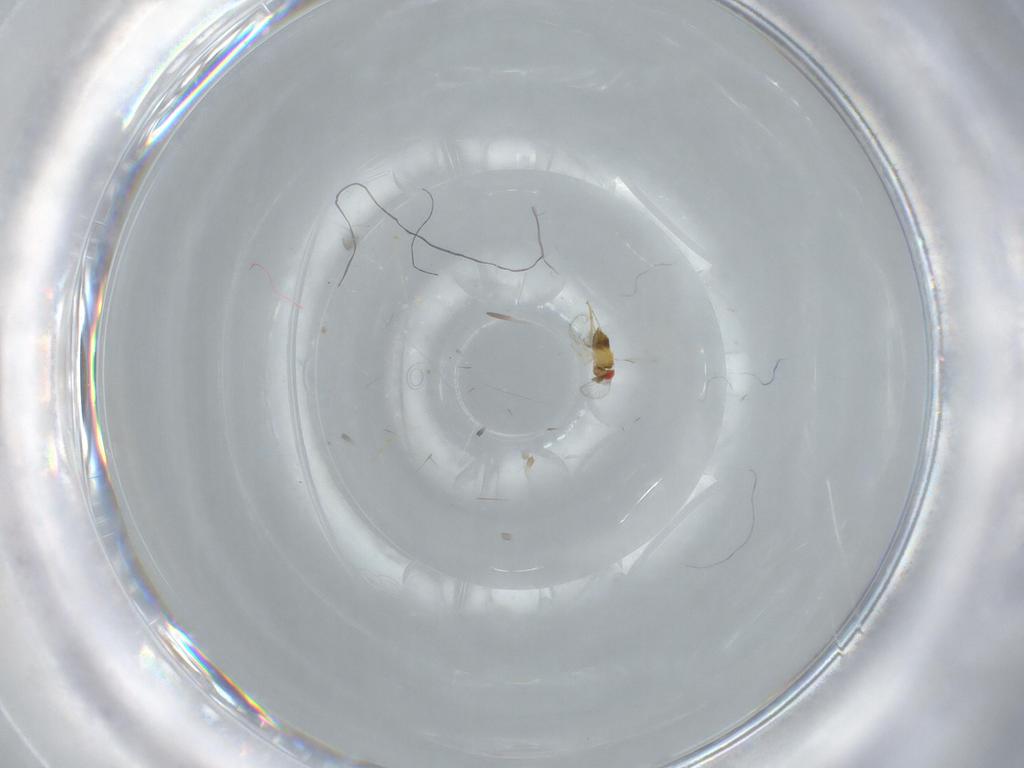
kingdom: Animalia
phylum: Arthropoda
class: Insecta
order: Hymenoptera
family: Trichogrammatidae
